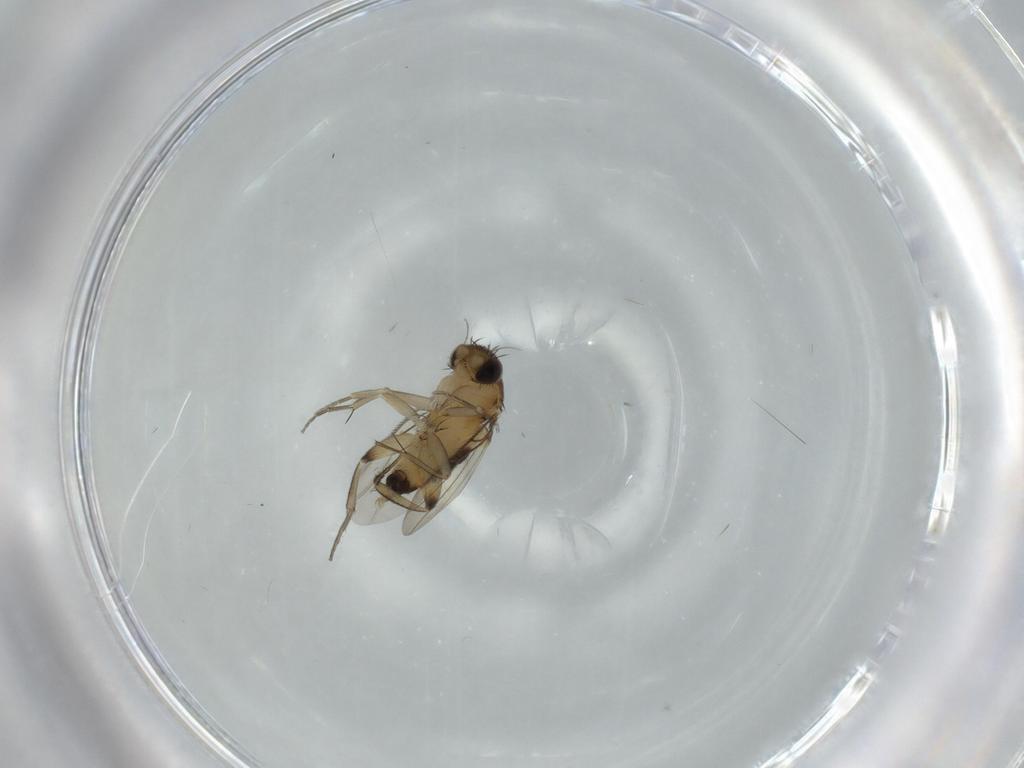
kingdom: Animalia
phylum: Arthropoda
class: Insecta
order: Diptera
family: Phoridae
